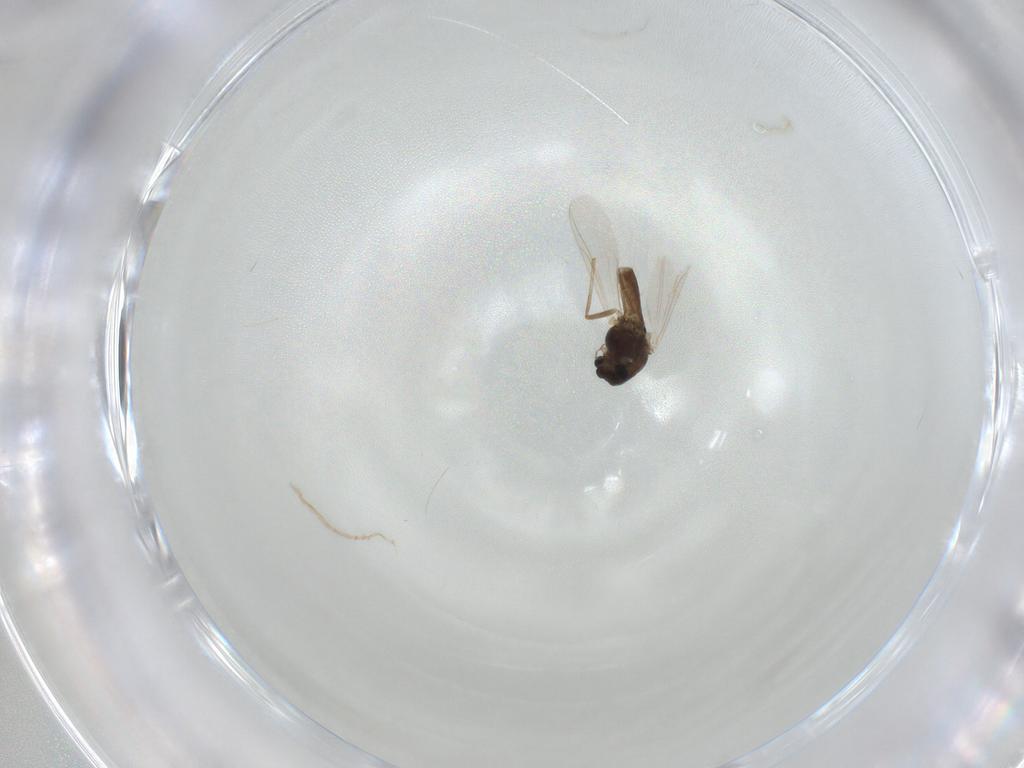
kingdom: Animalia
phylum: Arthropoda
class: Insecta
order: Diptera
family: Chironomidae
